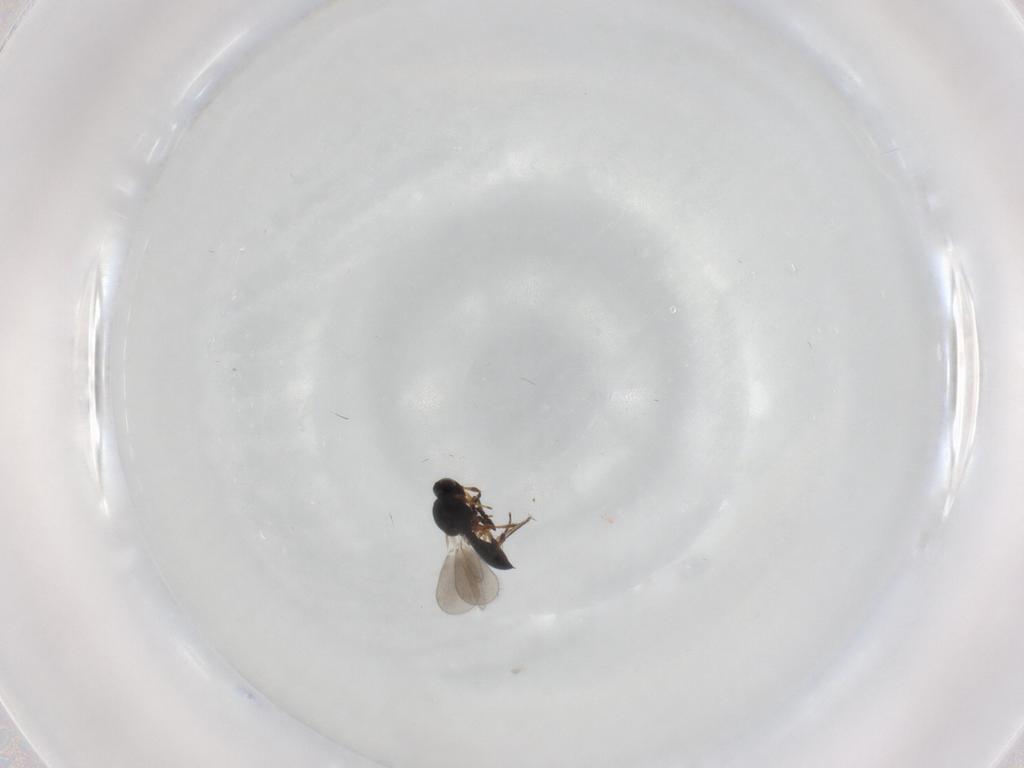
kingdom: Animalia
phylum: Arthropoda
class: Insecta
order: Hymenoptera
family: Platygastridae
